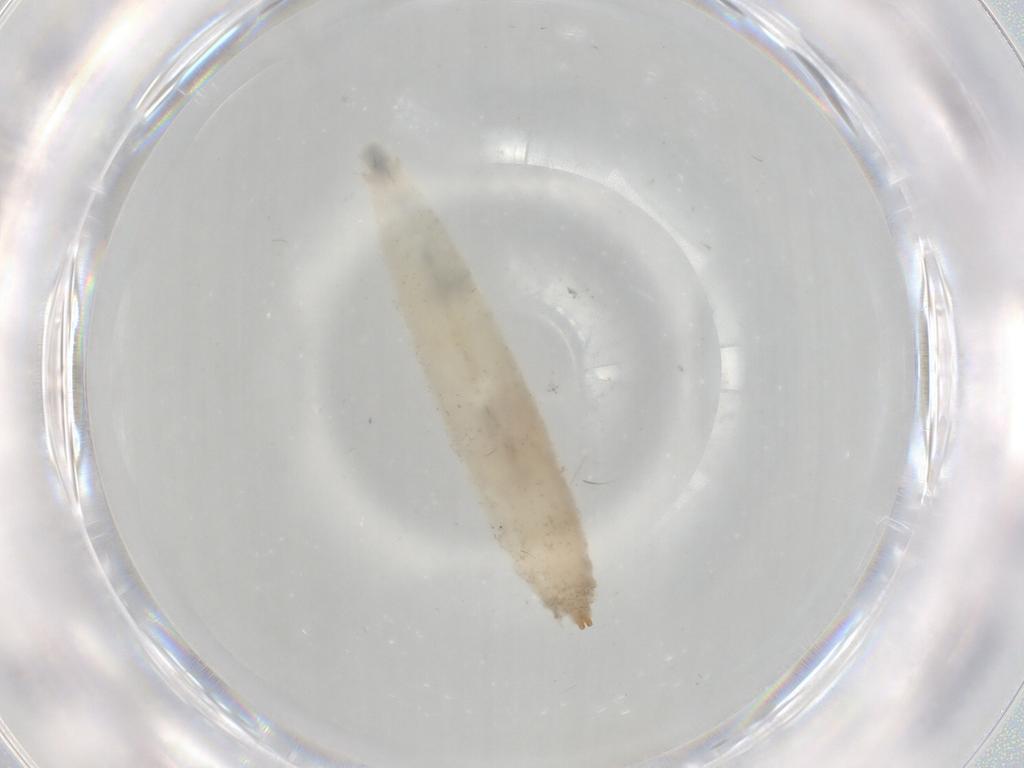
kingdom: Animalia
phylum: Arthropoda
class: Insecta
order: Diptera
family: Drosophilidae
